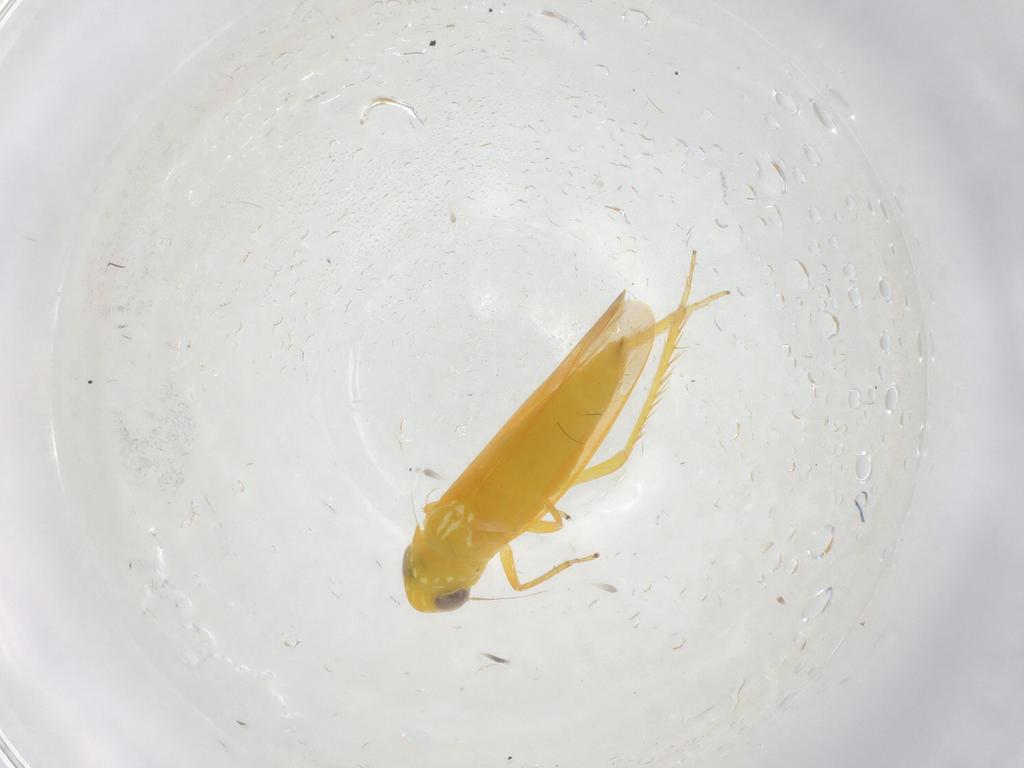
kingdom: Animalia
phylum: Arthropoda
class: Insecta
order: Hemiptera
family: Cicadellidae
